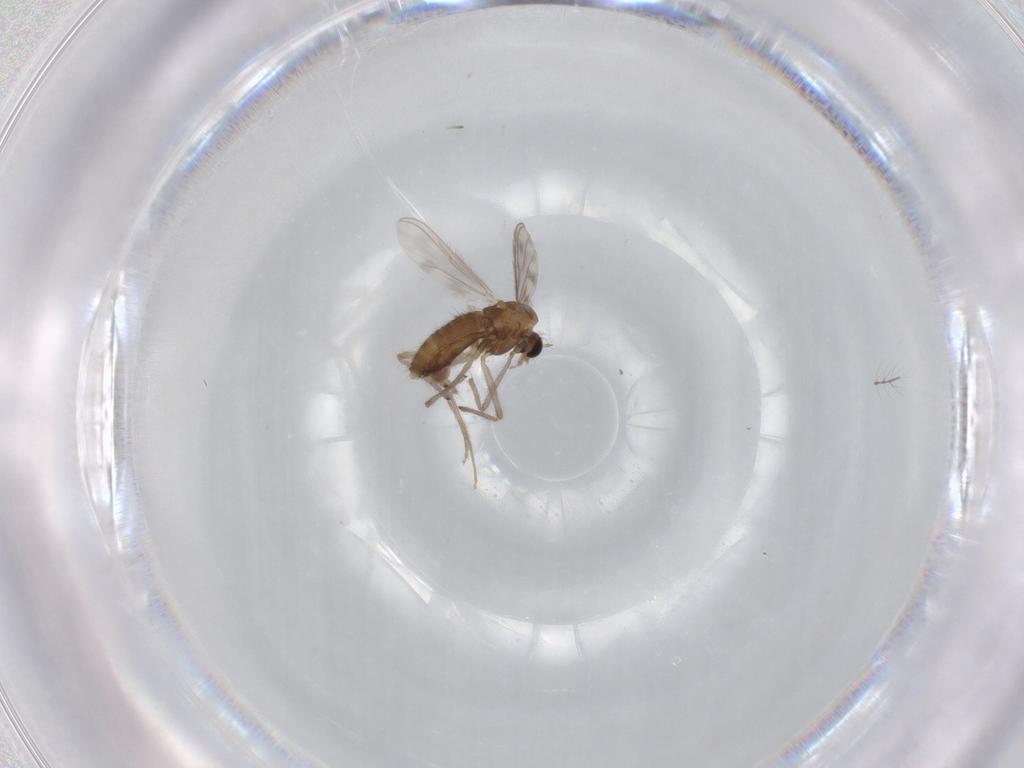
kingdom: Animalia
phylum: Arthropoda
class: Insecta
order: Diptera
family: Chironomidae
